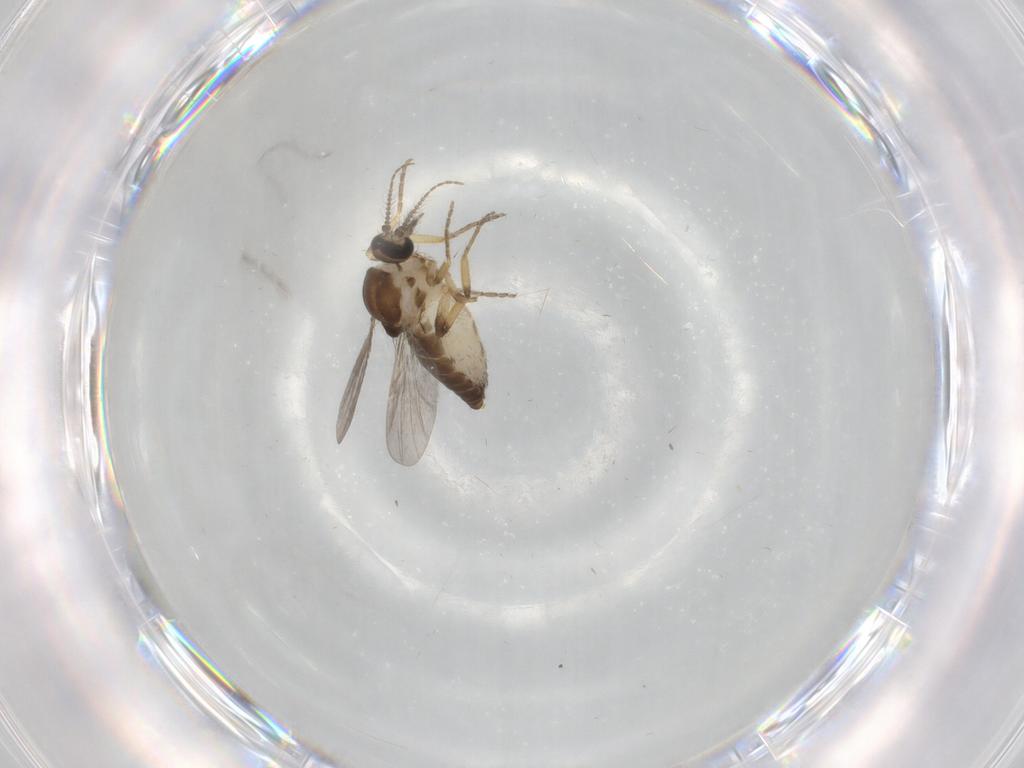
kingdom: Animalia
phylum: Arthropoda
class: Insecta
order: Diptera
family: Ceratopogonidae
